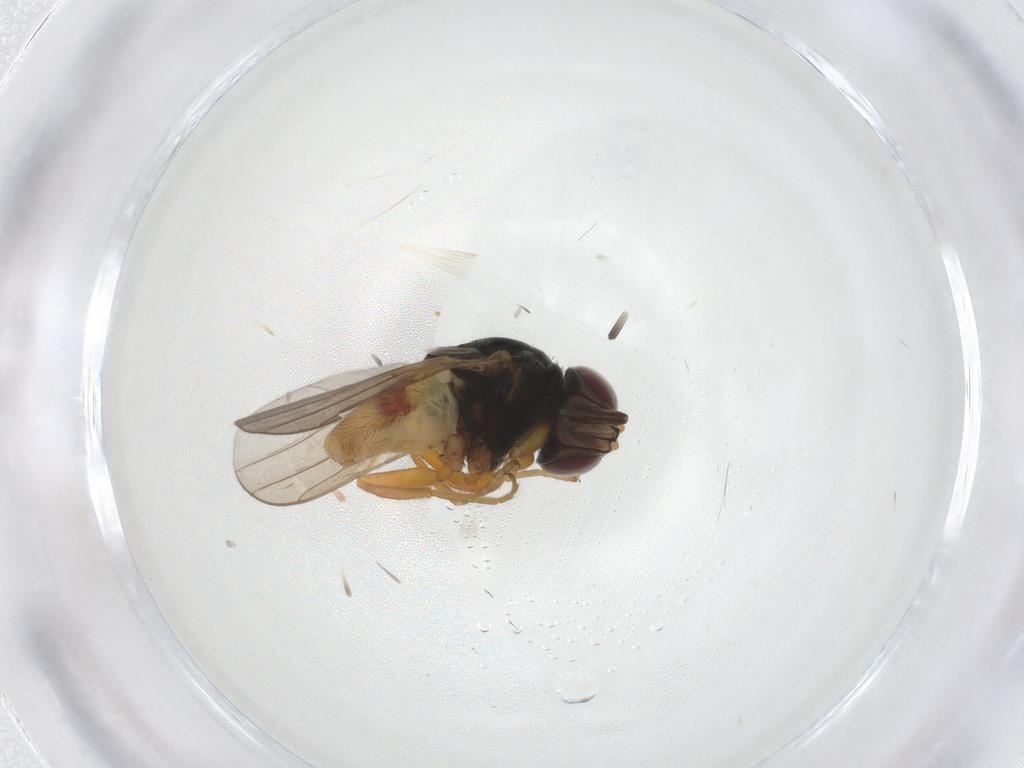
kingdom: Animalia
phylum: Arthropoda
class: Insecta
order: Diptera
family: Chloropidae
